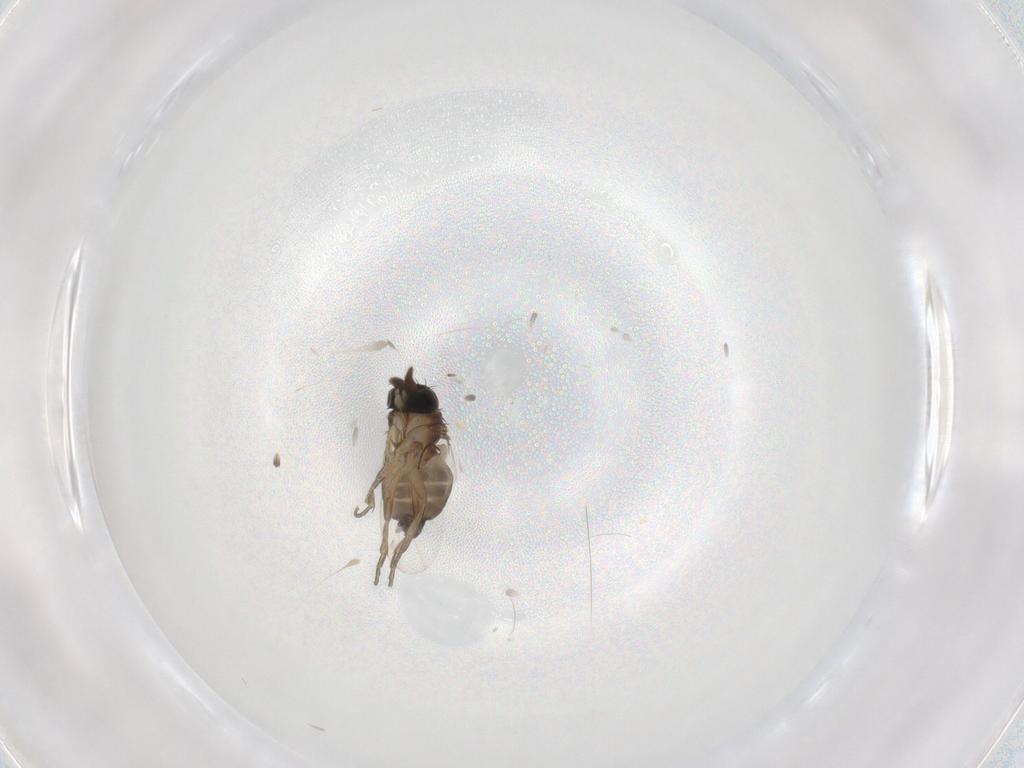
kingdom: Animalia
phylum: Arthropoda
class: Insecta
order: Diptera
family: Phoridae
